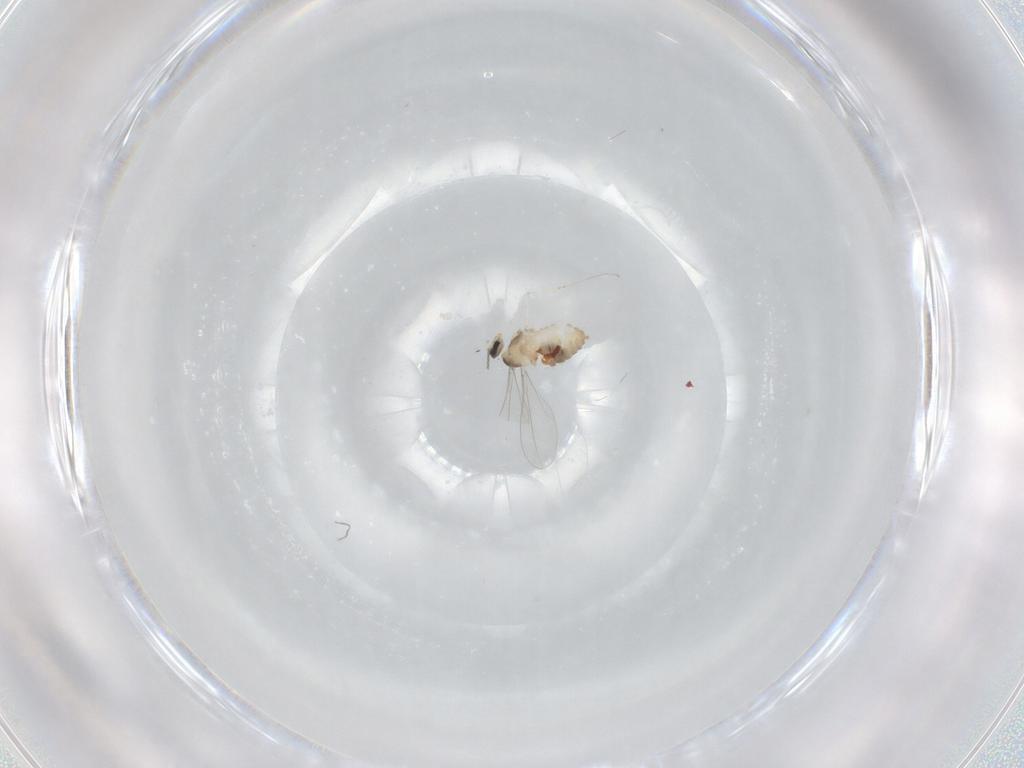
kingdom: Animalia
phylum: Arthropoda
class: Insecta
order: Diptera
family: Cecidomyiidae
